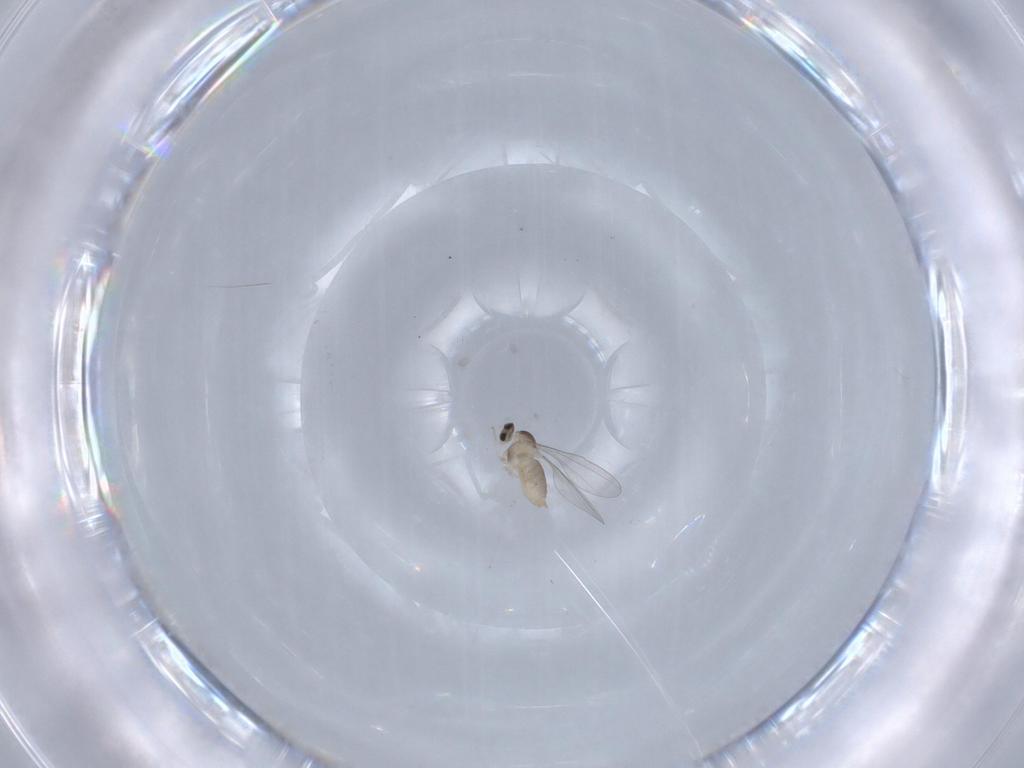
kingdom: Animalia
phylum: Arthropoda
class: Insecta
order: Diptera
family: Cecidomyiidae
